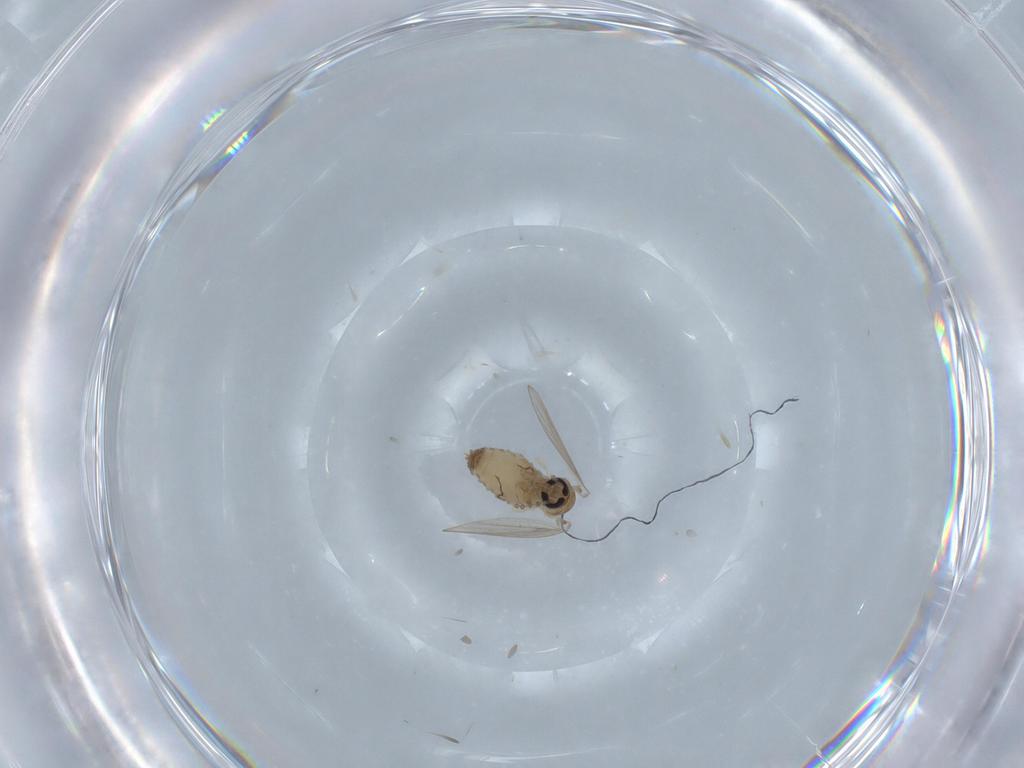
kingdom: Animalia
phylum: Arthropoda
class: Insecta
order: Diptera
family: Psychodidae
